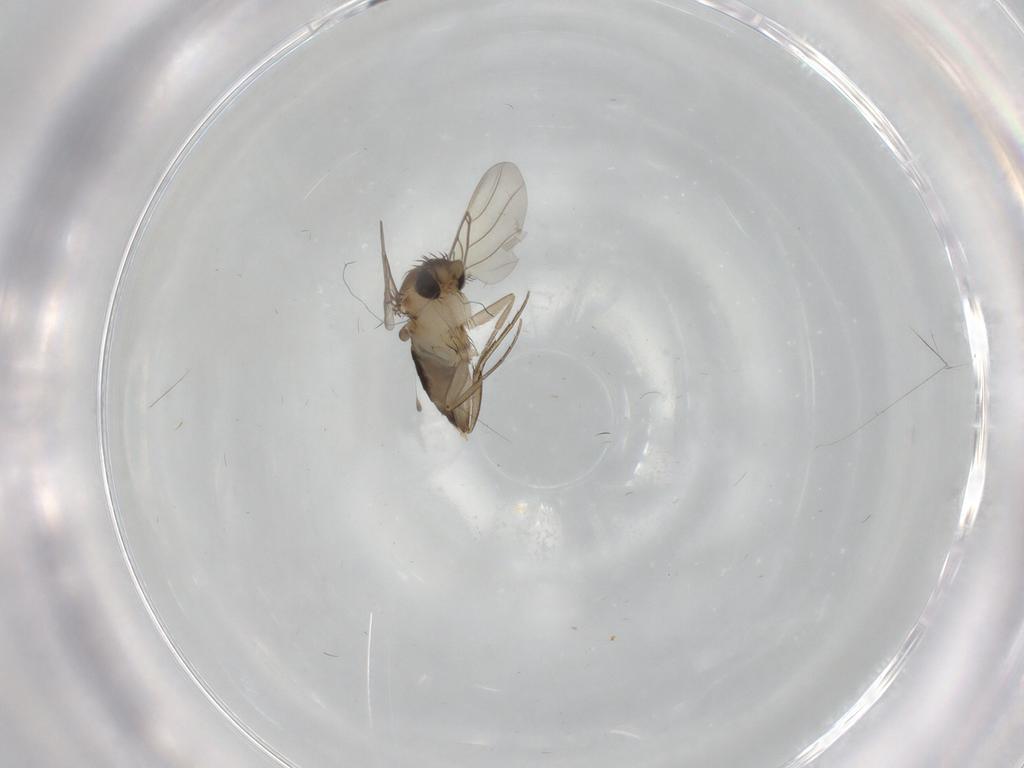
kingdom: Animalia
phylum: Arthropoda
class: Insecta
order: Diptera
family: Phoridae
